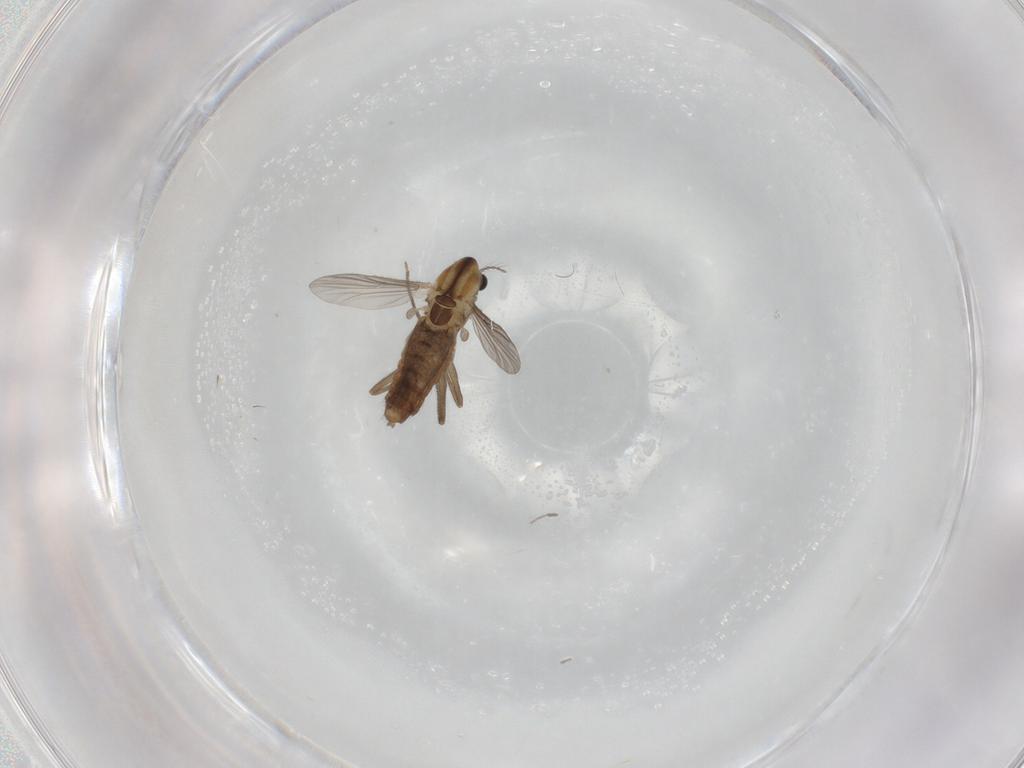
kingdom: Animalia
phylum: Arthropoda
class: Insecta
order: Diptera
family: Chironomidae
